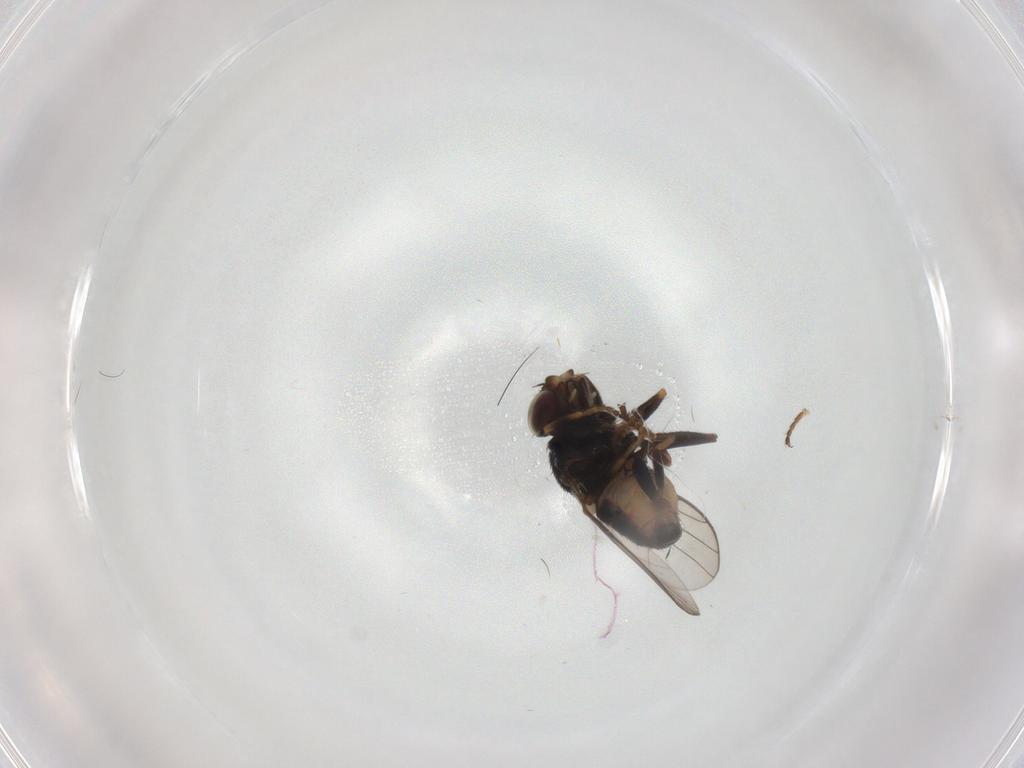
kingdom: Animalia
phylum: Arthropoda
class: Insecta
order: Diptera
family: Chloropidae
